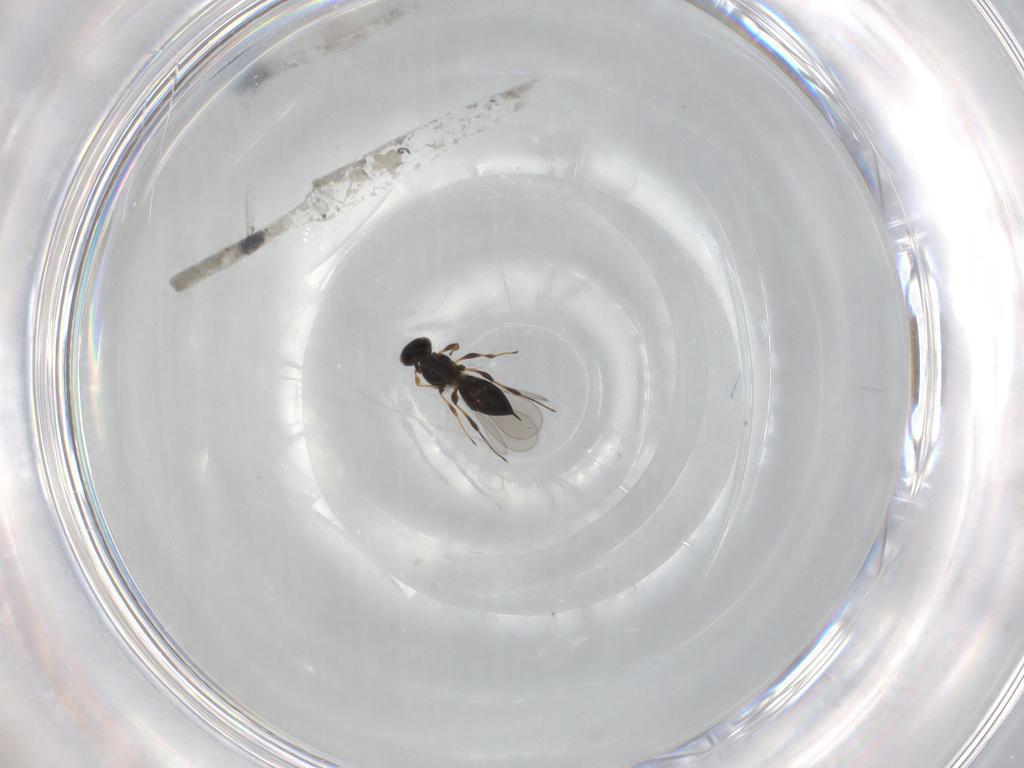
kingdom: Animalia
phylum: Arthropoda
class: Insecta
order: Hymenoptera
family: Platygastridae
